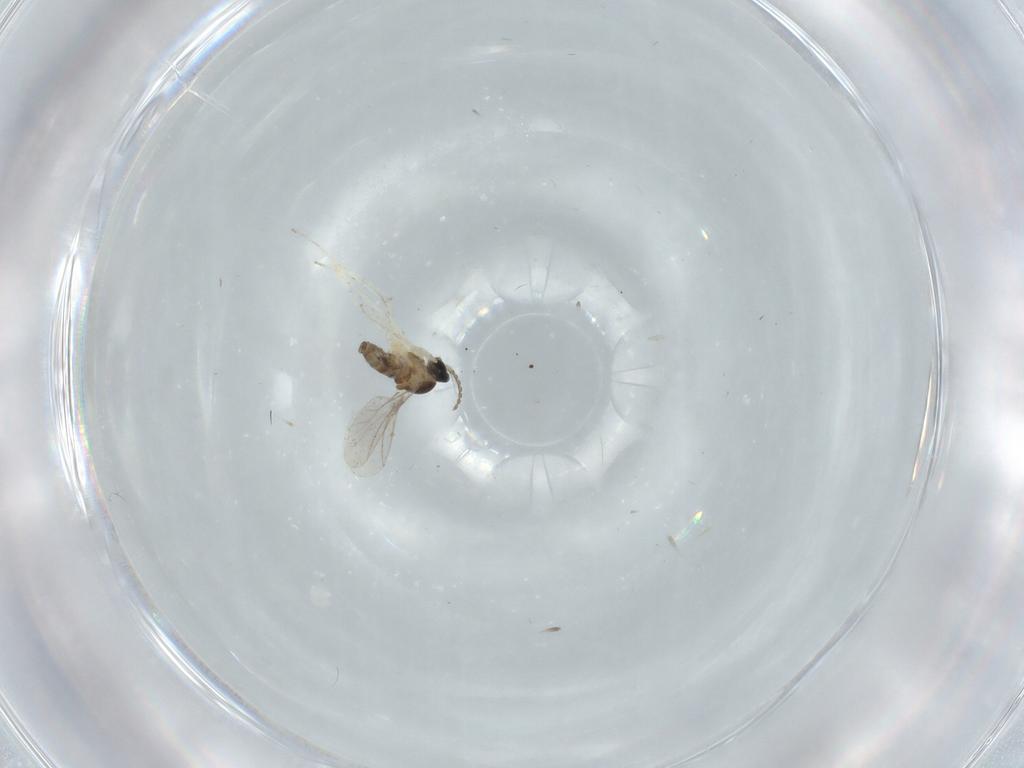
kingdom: Animalia
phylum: Arthropoda
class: Insecta
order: Diptera
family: Cecidomyiidae
